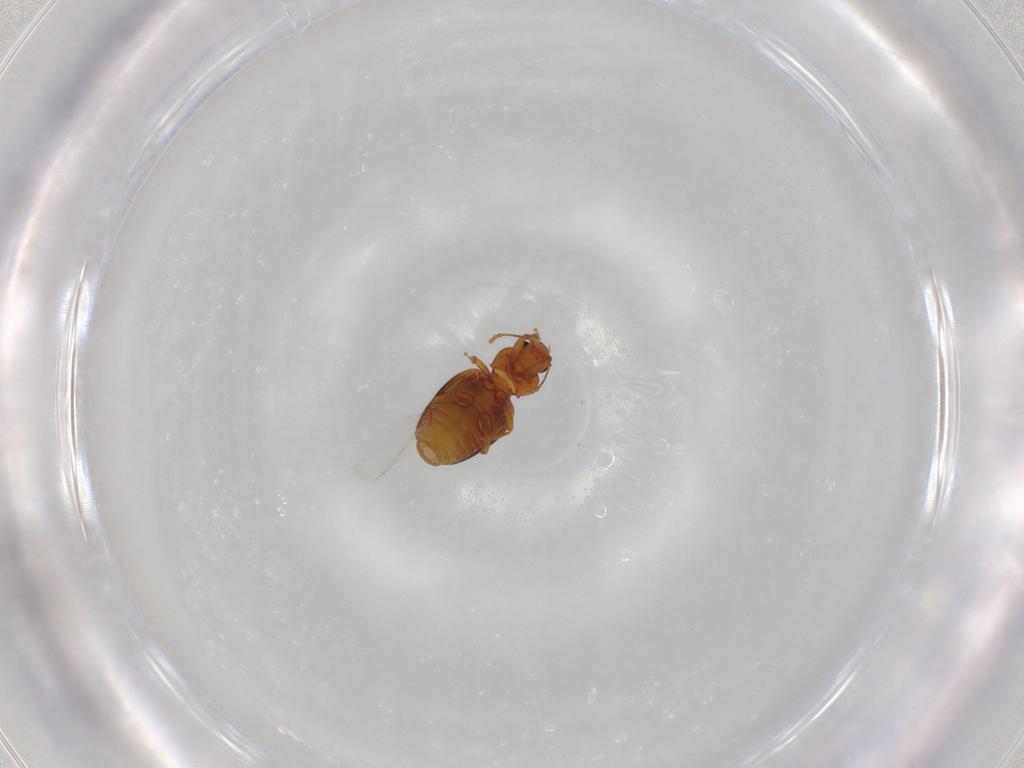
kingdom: Animalia
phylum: Arthropoda
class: Insecta
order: Coleoptera
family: Latridiidae
